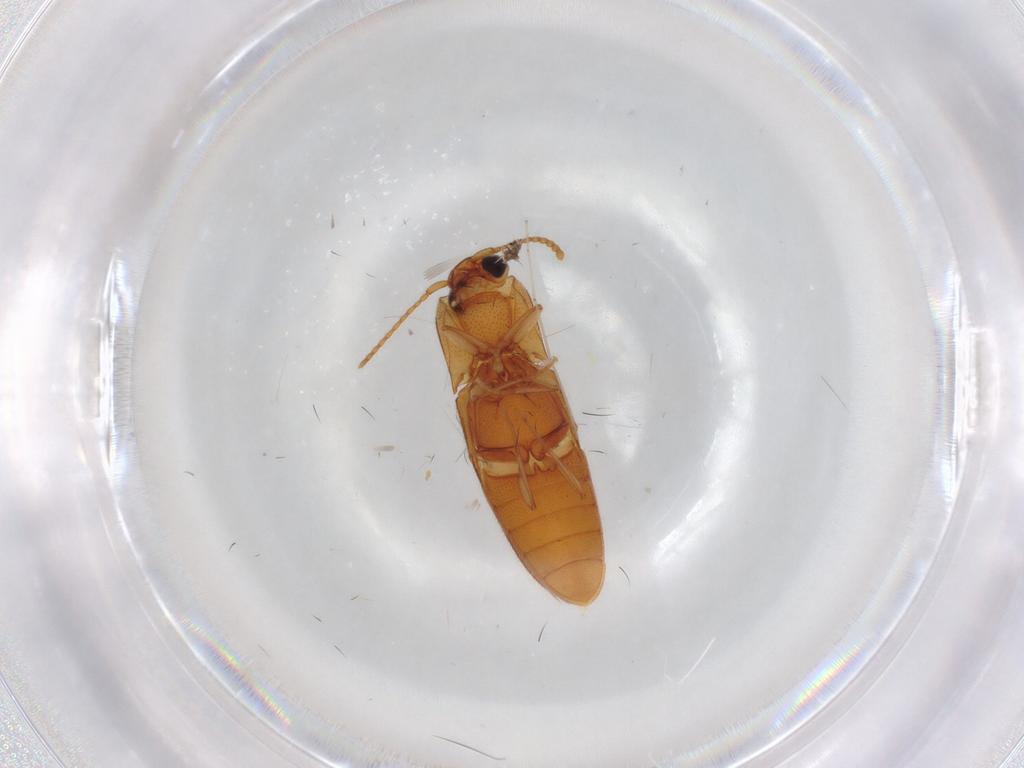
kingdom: Animalia
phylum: Arthropoda
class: Insecta
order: Coleoptera
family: Elateridae
